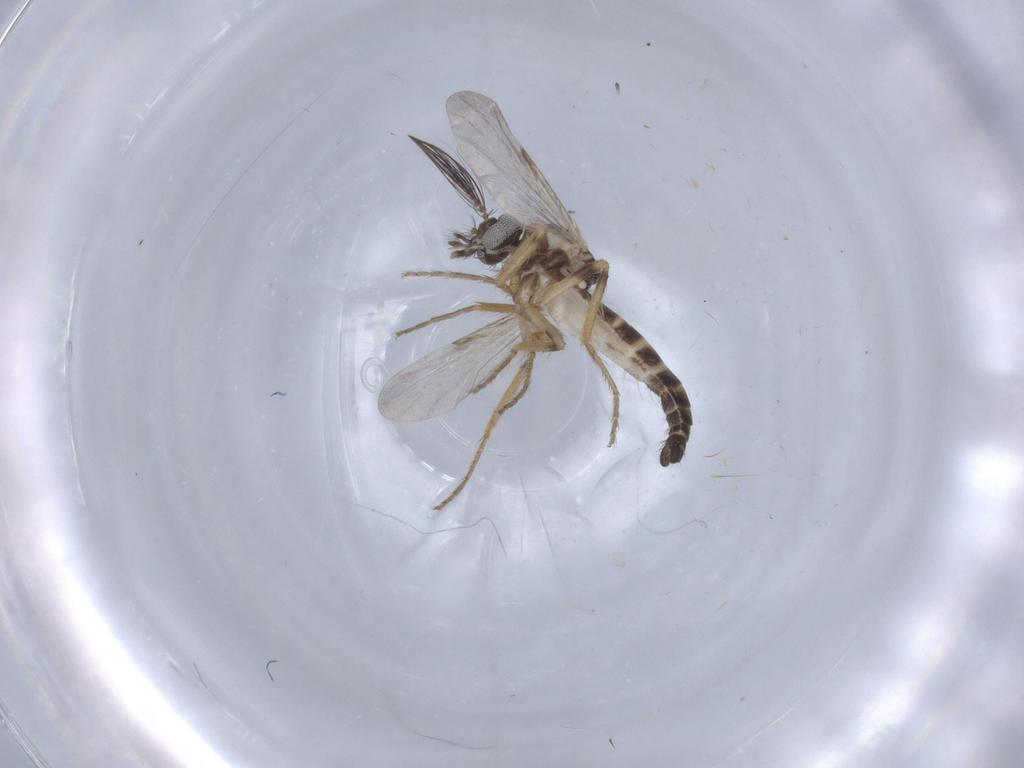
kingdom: Animalia
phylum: Arthropoda
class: Insecta
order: Diptera
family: Ceratopogonidae
